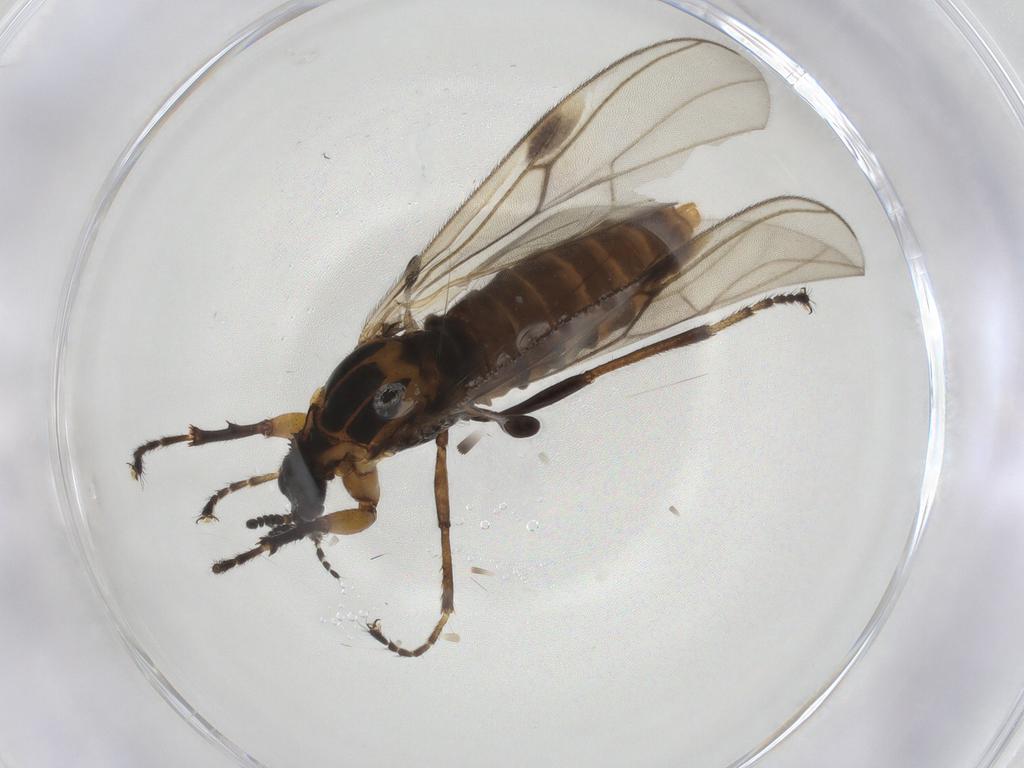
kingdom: Animalia
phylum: Arthropoda
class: Insecta
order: Diptera
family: Bibionidae
